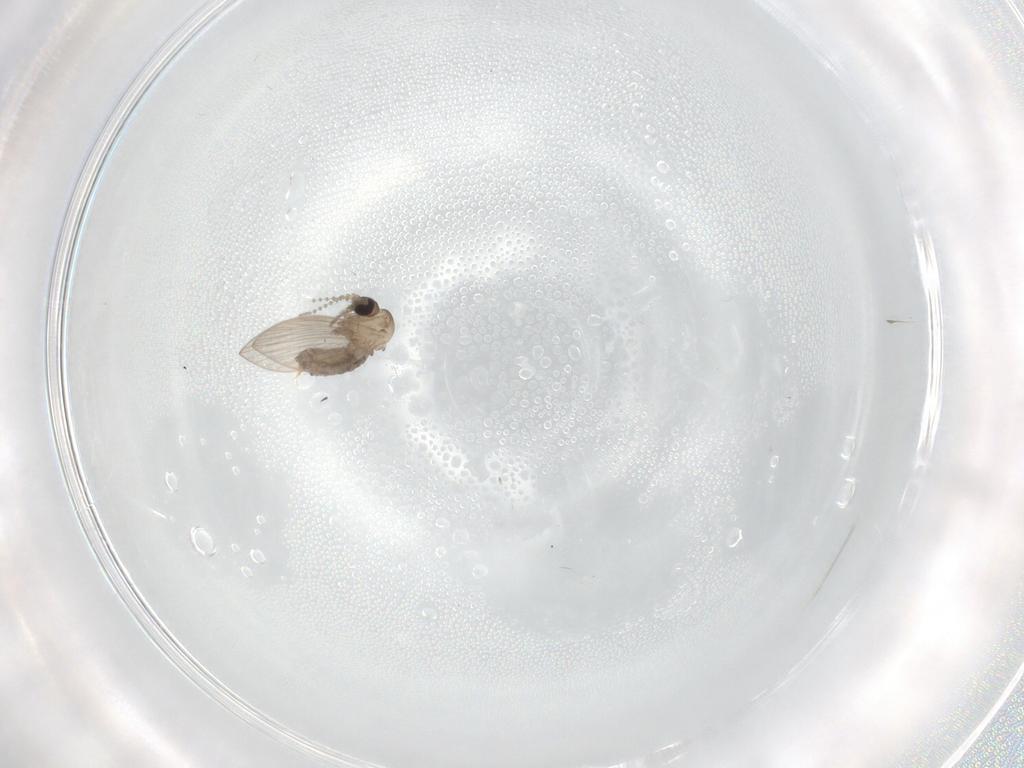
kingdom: Animalia
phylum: Arthropoda
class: Insecta
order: Diptera
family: Psychodidae
